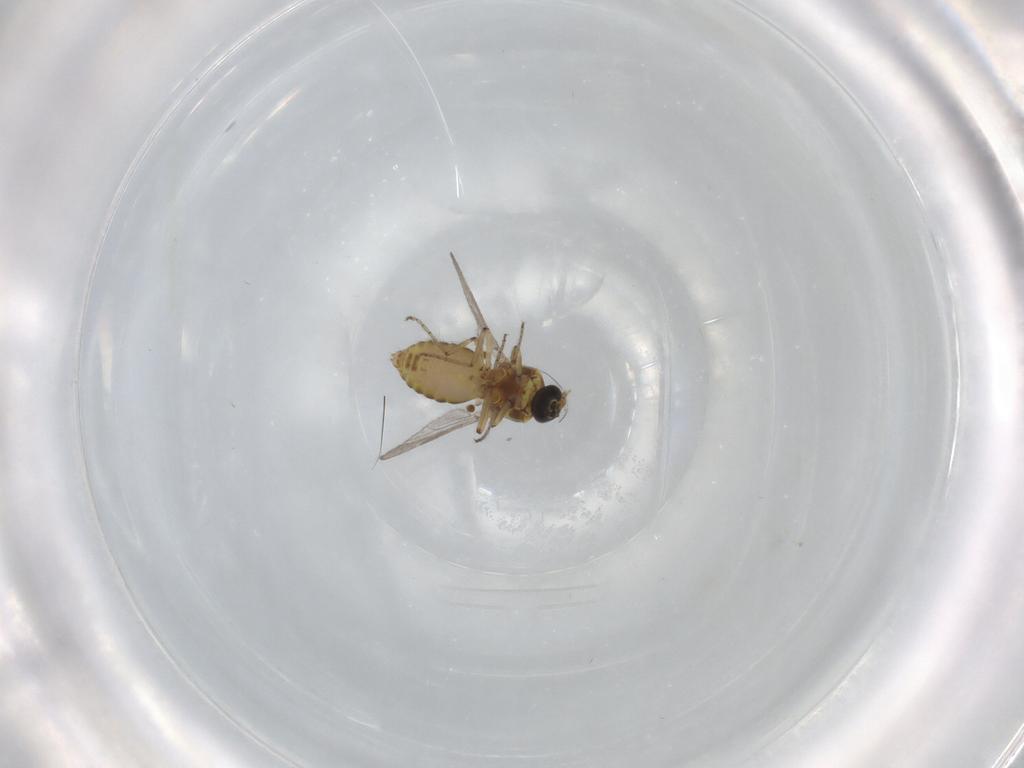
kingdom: Animalia
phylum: Arthropoda
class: Insecta
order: Diptera
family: Ceratopogonidae
